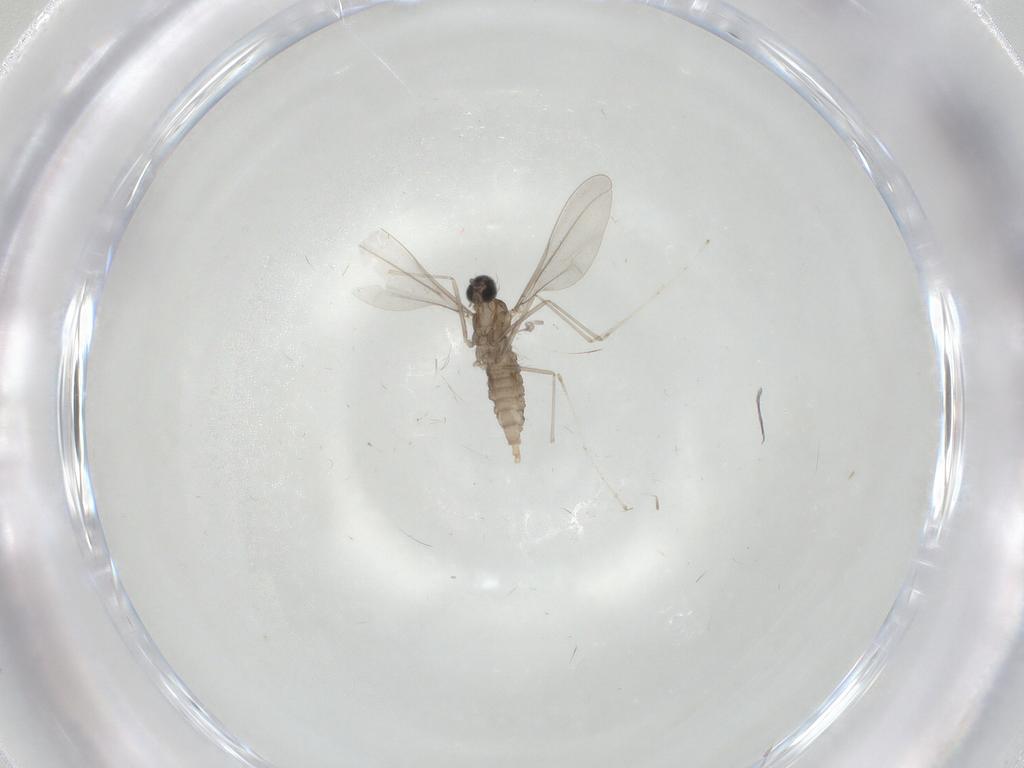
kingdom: Animalia
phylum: Arthropoda
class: Insecta
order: Diptera
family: Cecidomyiidae
